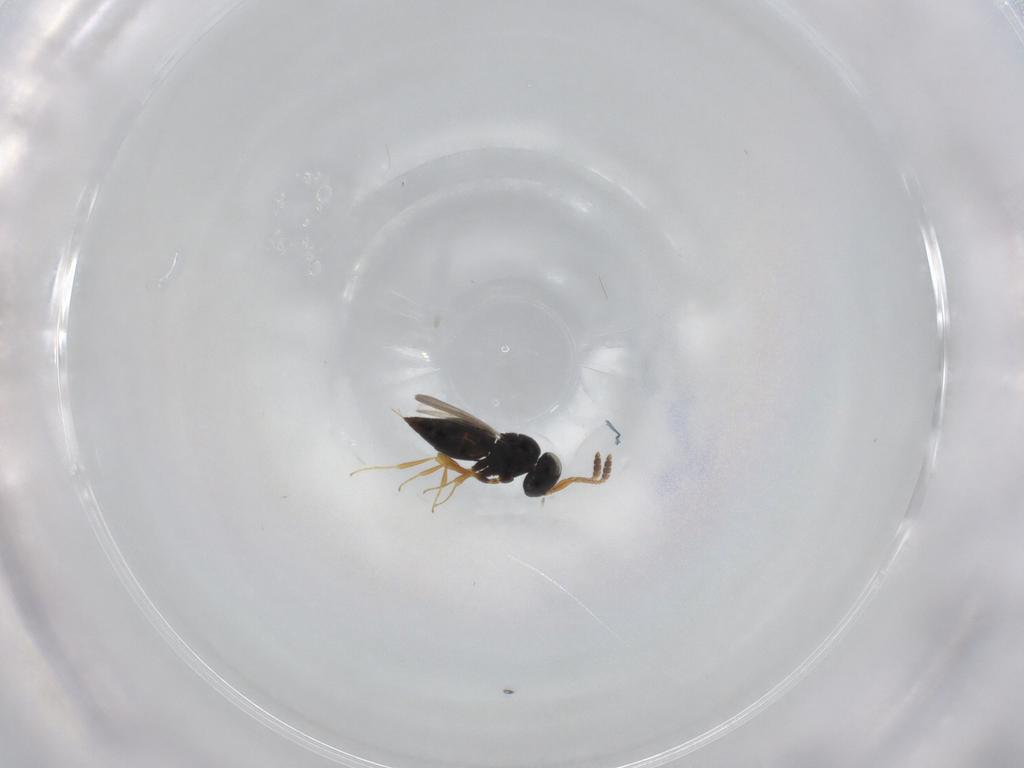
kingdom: Animalia
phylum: Arthropoda
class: Insecta
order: Hymenoptera
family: Scelionidae
